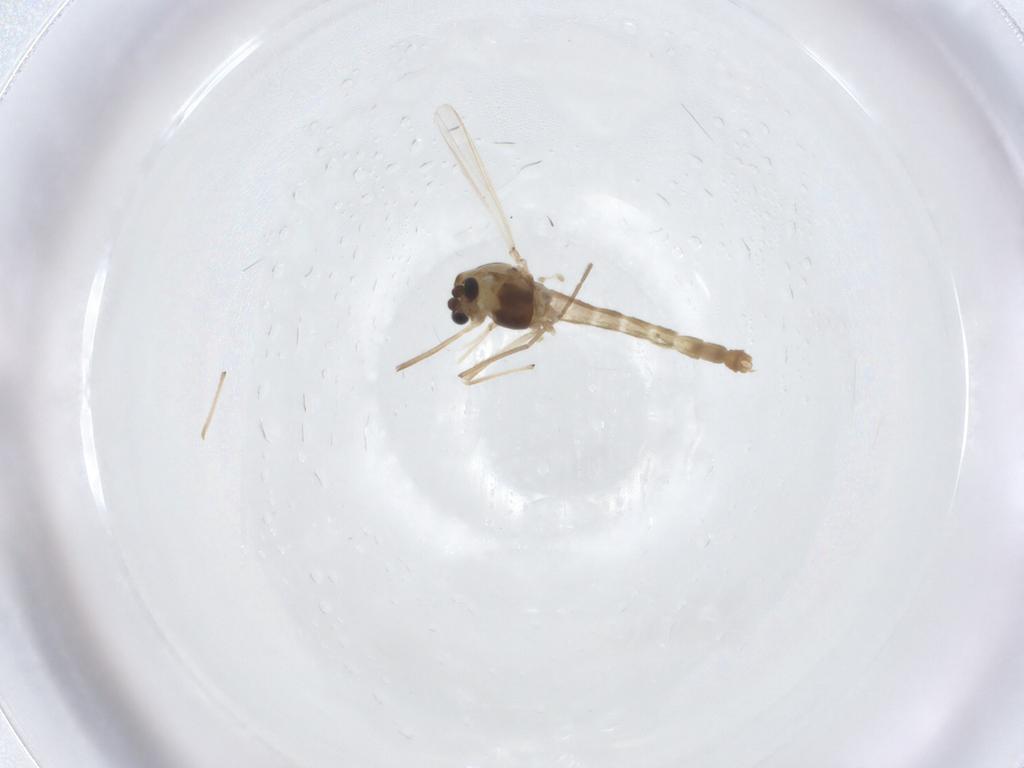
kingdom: Animalia
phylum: Arthropoda
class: Insecta
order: Diptera
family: Chironomidae
